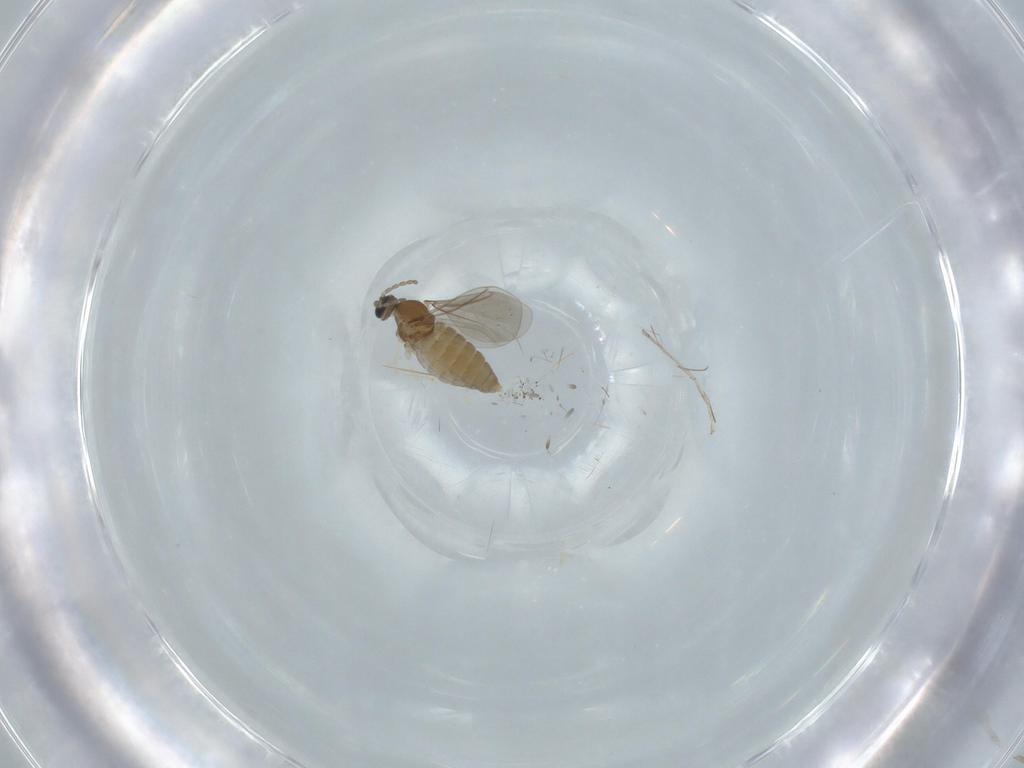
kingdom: Animalia
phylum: Arthropoda
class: Insecta
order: Diptera
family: Cecidomyiidae
